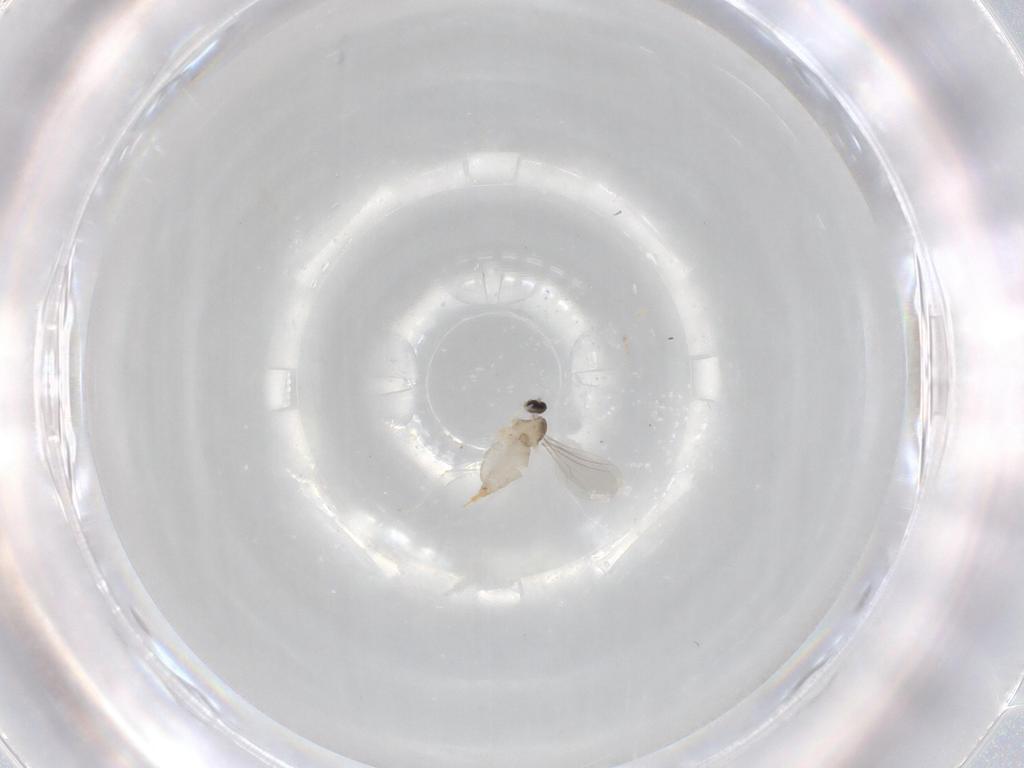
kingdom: Animalia
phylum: Arthropoda
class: Insecta
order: Diptera
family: Cecidomyiidae
